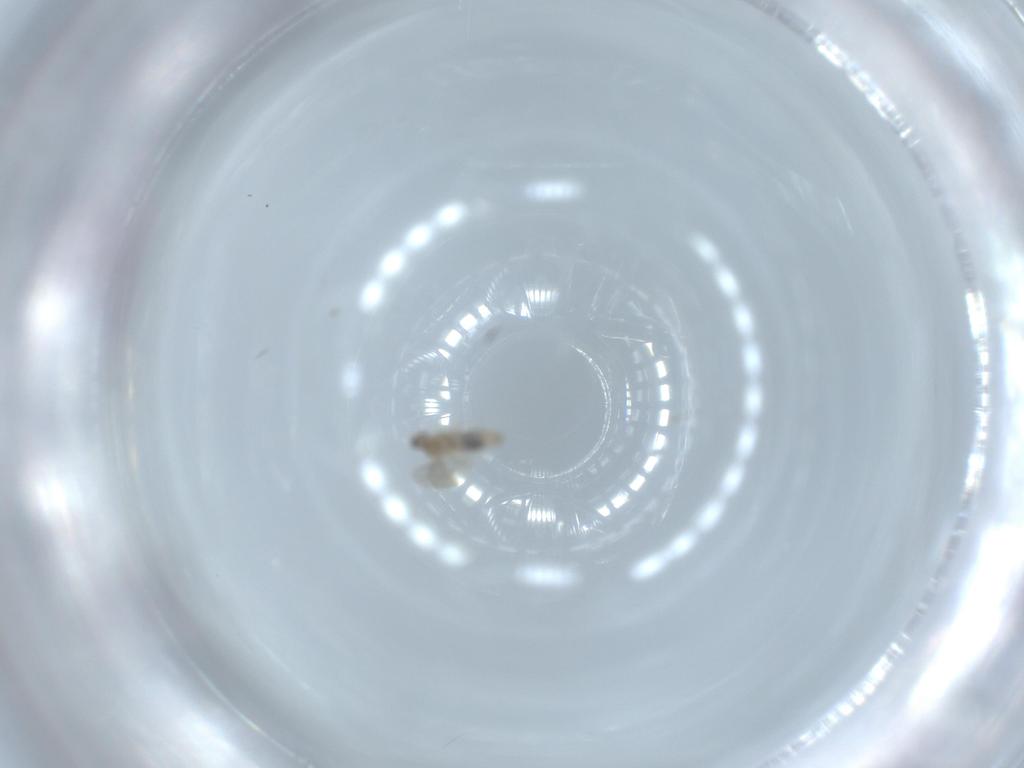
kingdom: Animalia
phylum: Arthropoda
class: Insecta
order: Diptera
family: Cecidomyiidae
